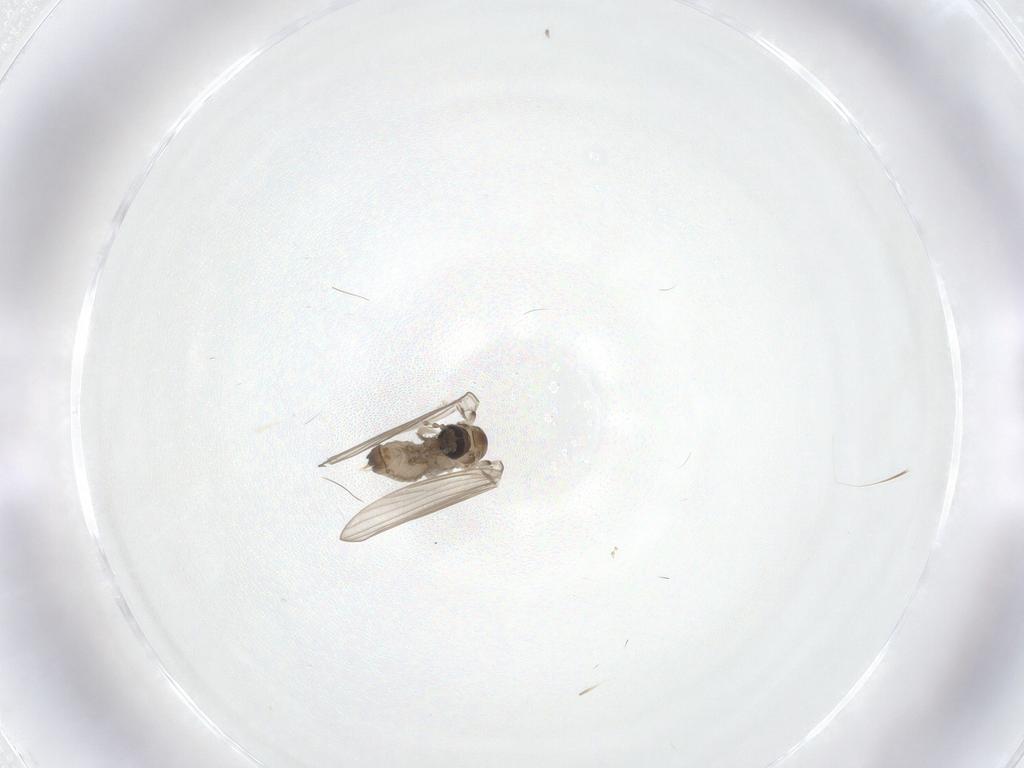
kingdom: Animalia
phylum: Arthropoda
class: Insecta
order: Diptera
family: Psychodidae
